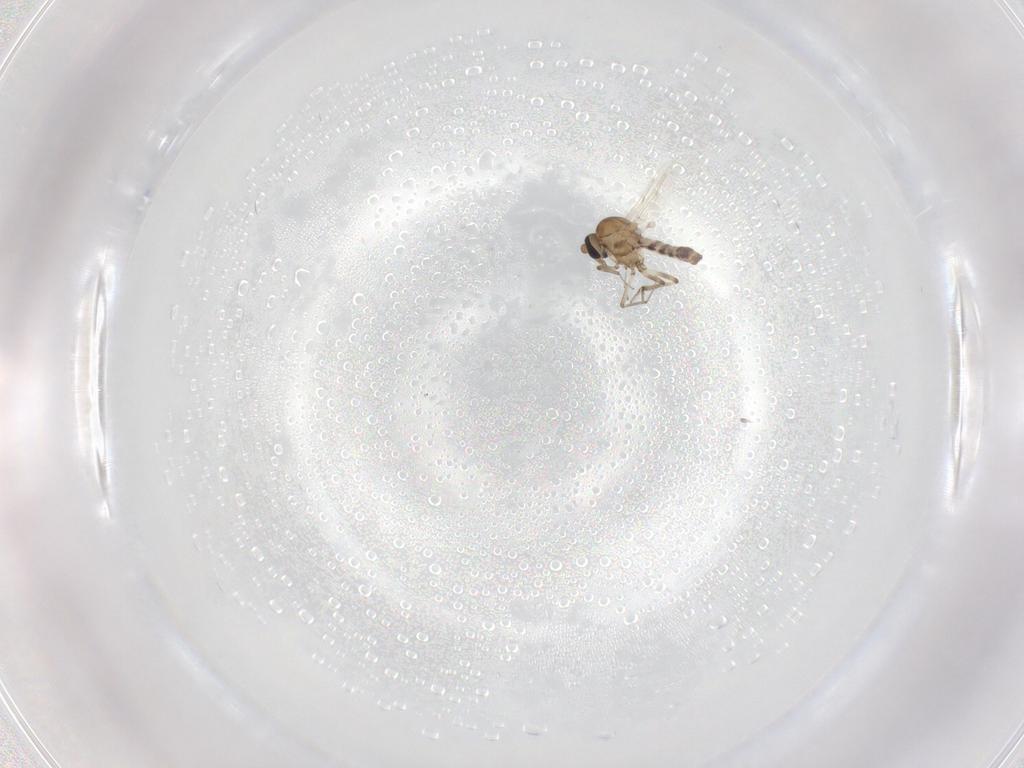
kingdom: Animalia
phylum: Arthropoda
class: Insecta
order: Diptera
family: Ceratopogonidae
